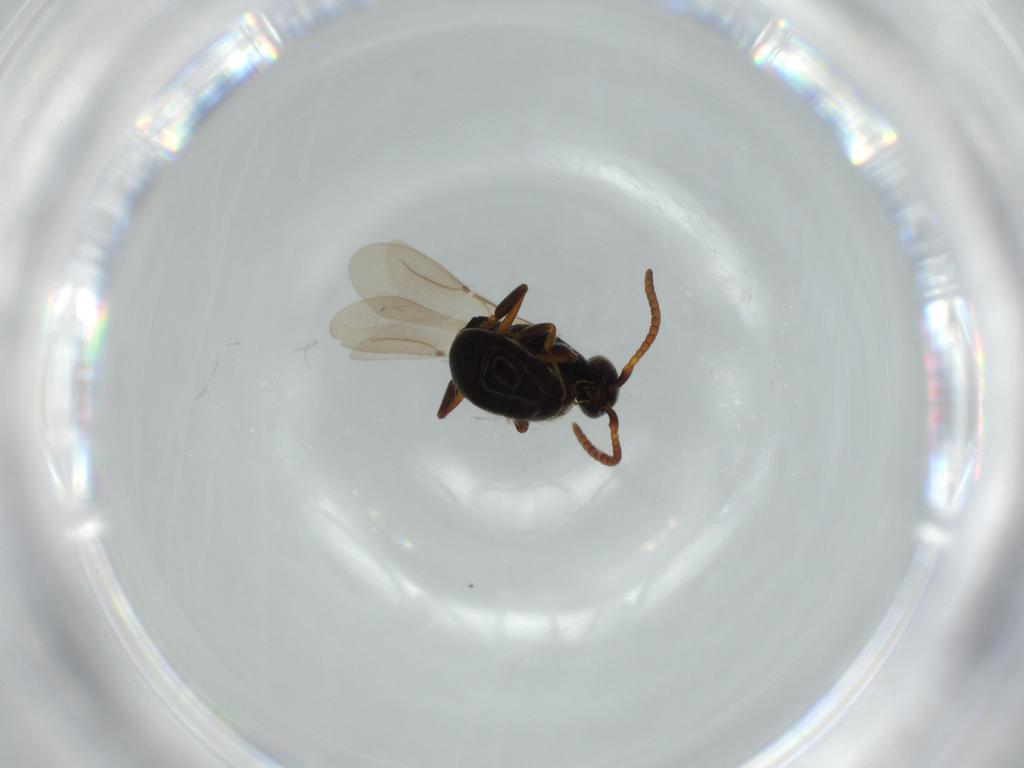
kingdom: Animalia
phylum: Arthropoda
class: Insecta
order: Hymenoptera
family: Bethylidae
